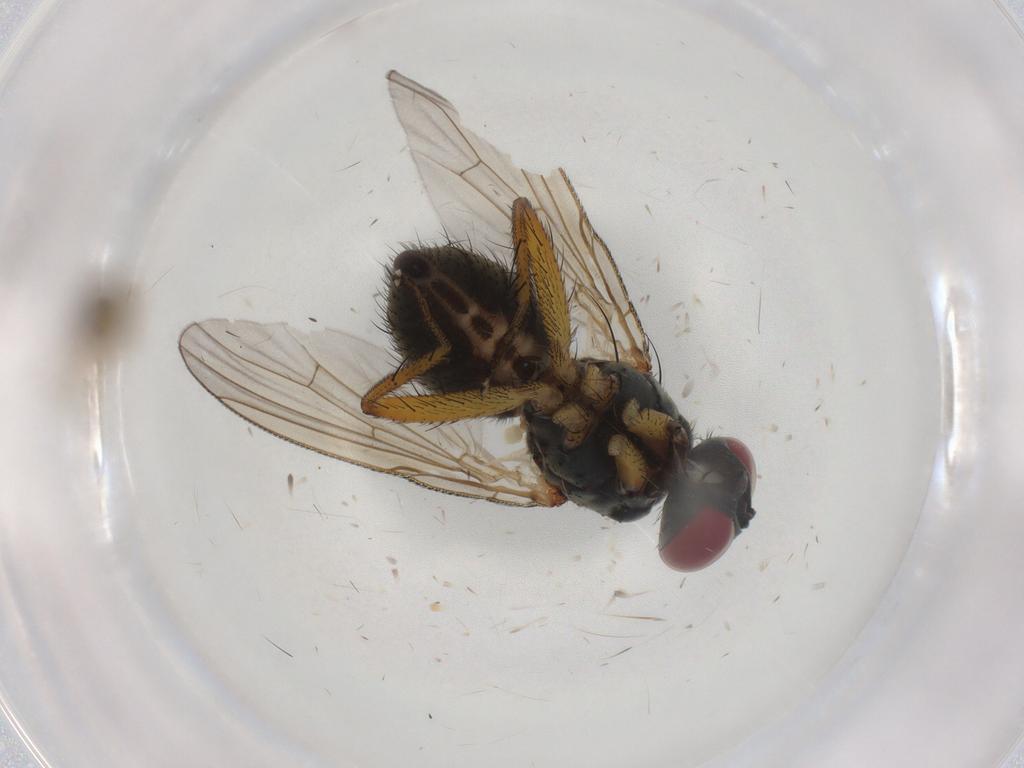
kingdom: Animalia
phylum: Arthropoda
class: Insecta
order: Diptera
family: Muscidae
